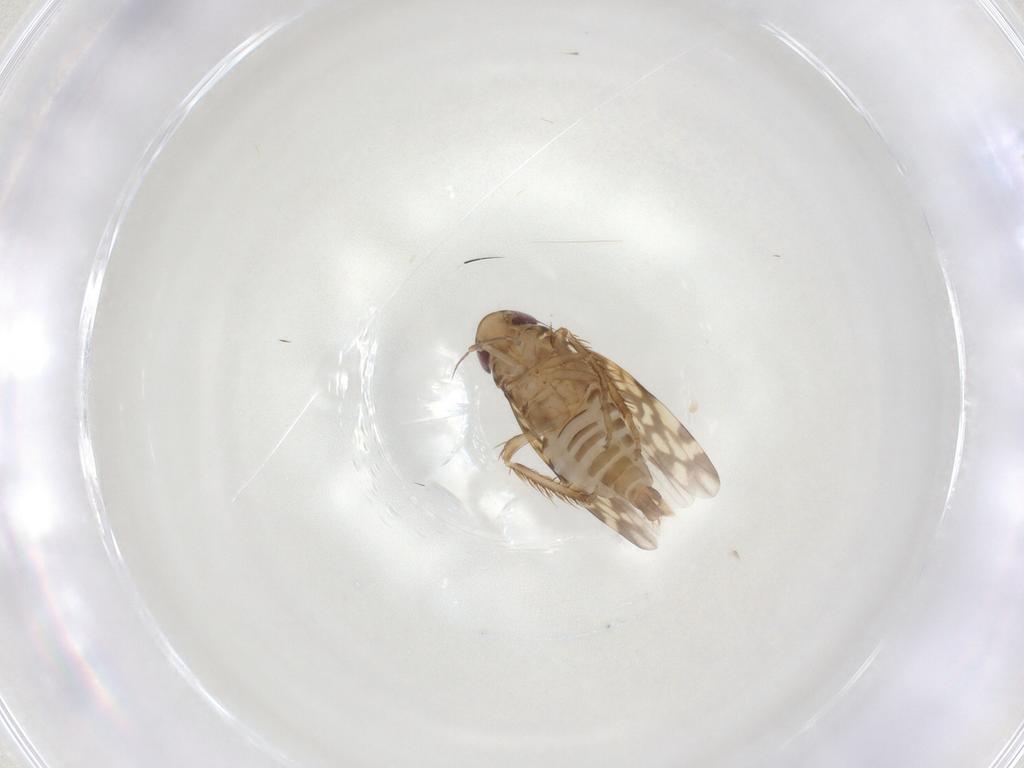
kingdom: Animalia
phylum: Arthropoda
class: Insecta
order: Hemiptera
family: Cicadellidae
